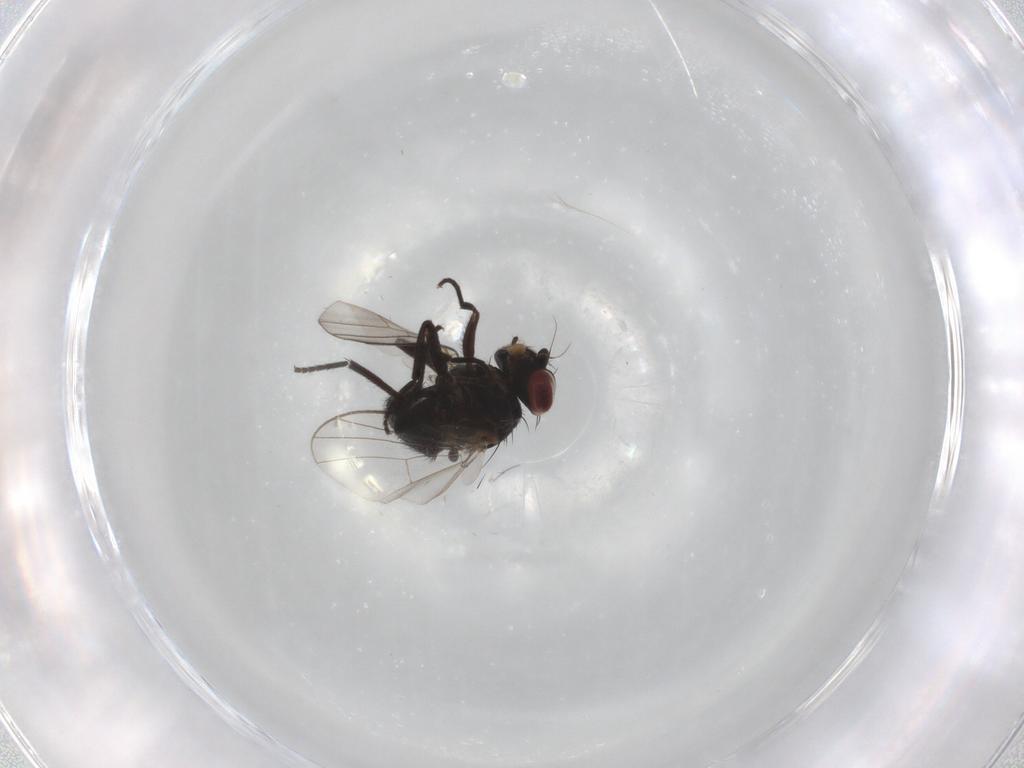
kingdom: Animalia
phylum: Arthropoda
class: Insecta
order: Diptera
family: Agromyzidae
